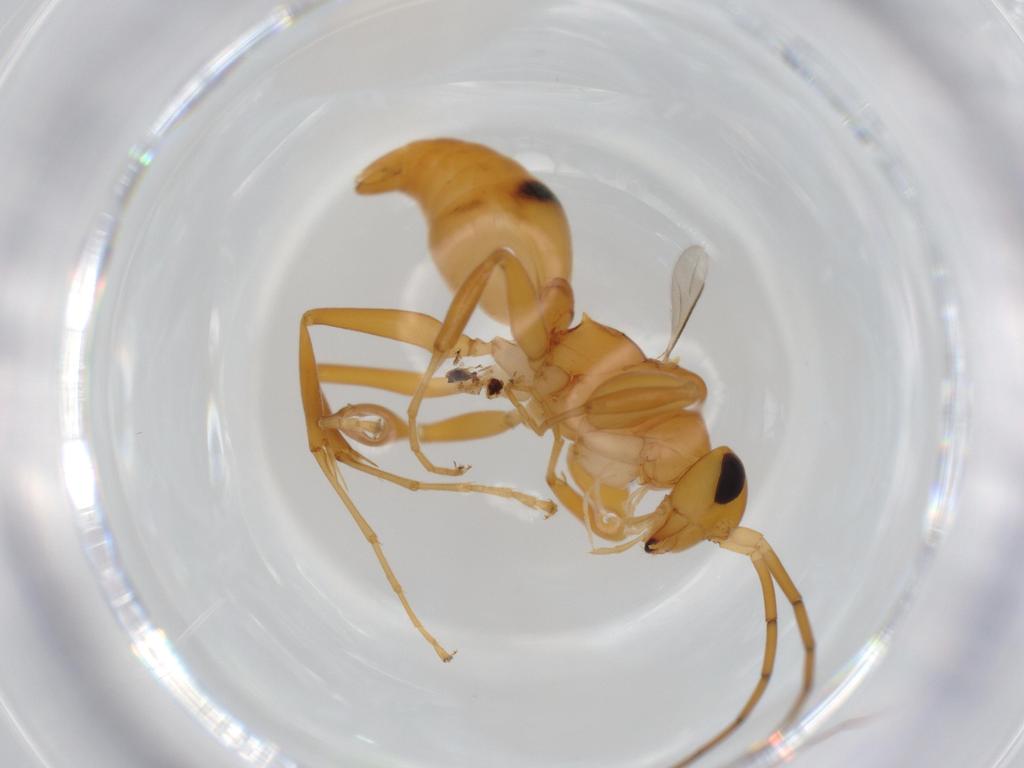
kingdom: Animalia
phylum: Arthropoda
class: Insecta
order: Hymenoptera
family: Rhopalosomatidae
